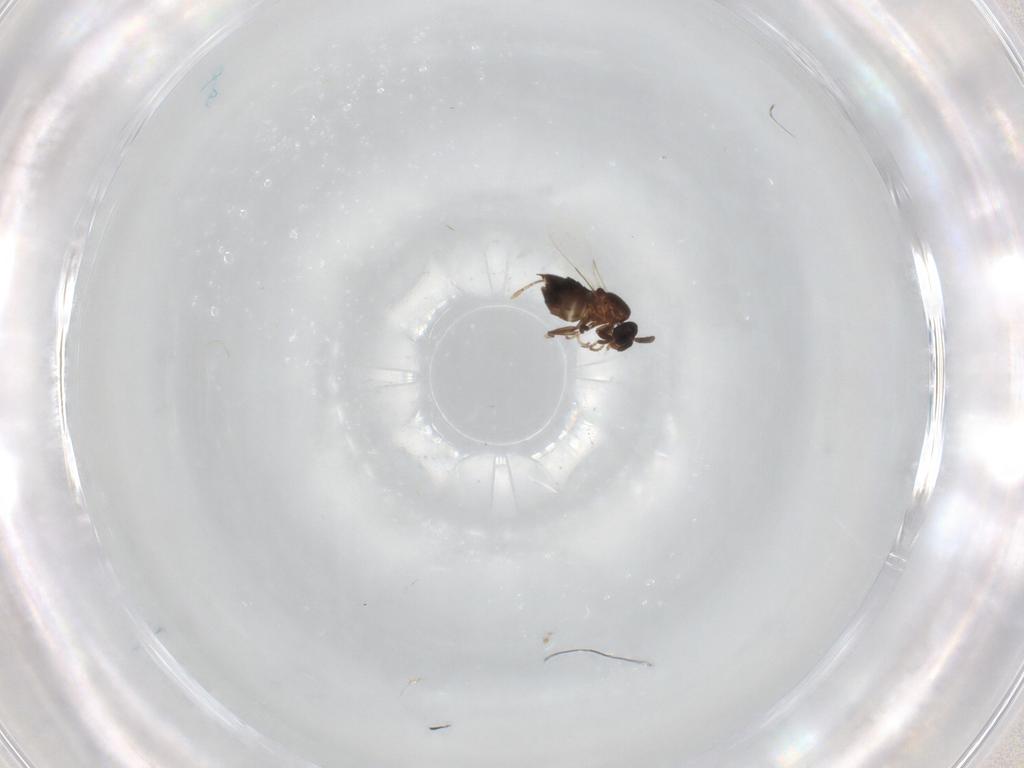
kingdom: Animalia
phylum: Arthropoda
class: Insecta
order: Diptera
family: Scatopsidae
